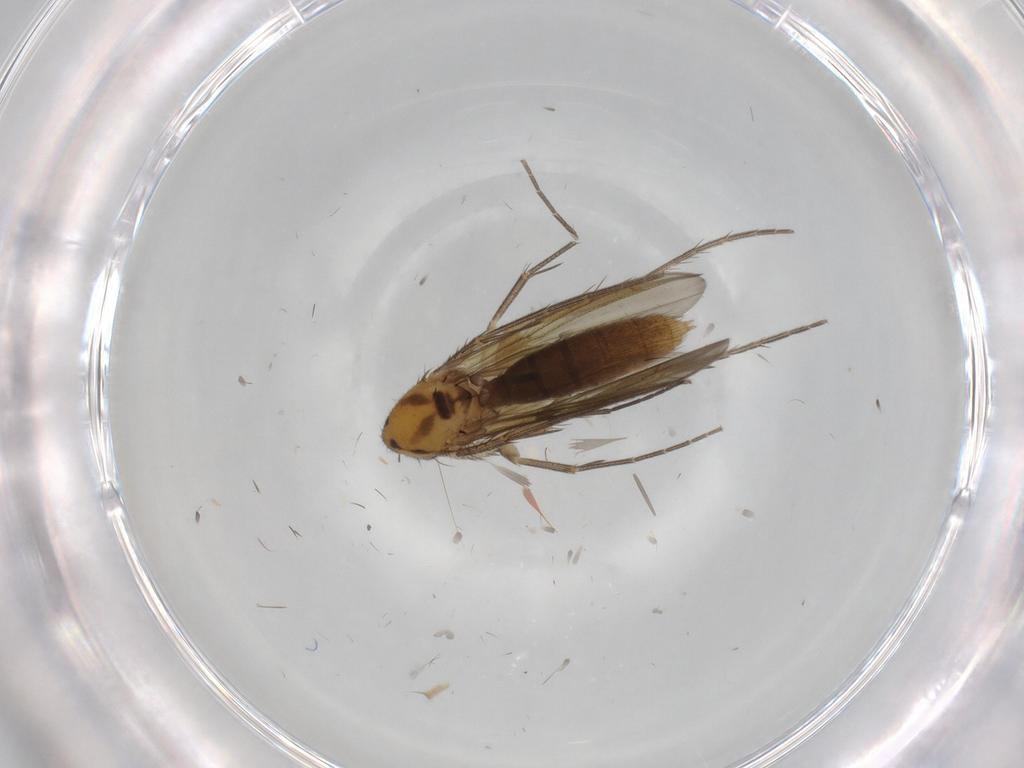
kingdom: Animalia
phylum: Arthropoda
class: Insecta
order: Diptera
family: Mycetophilidae
